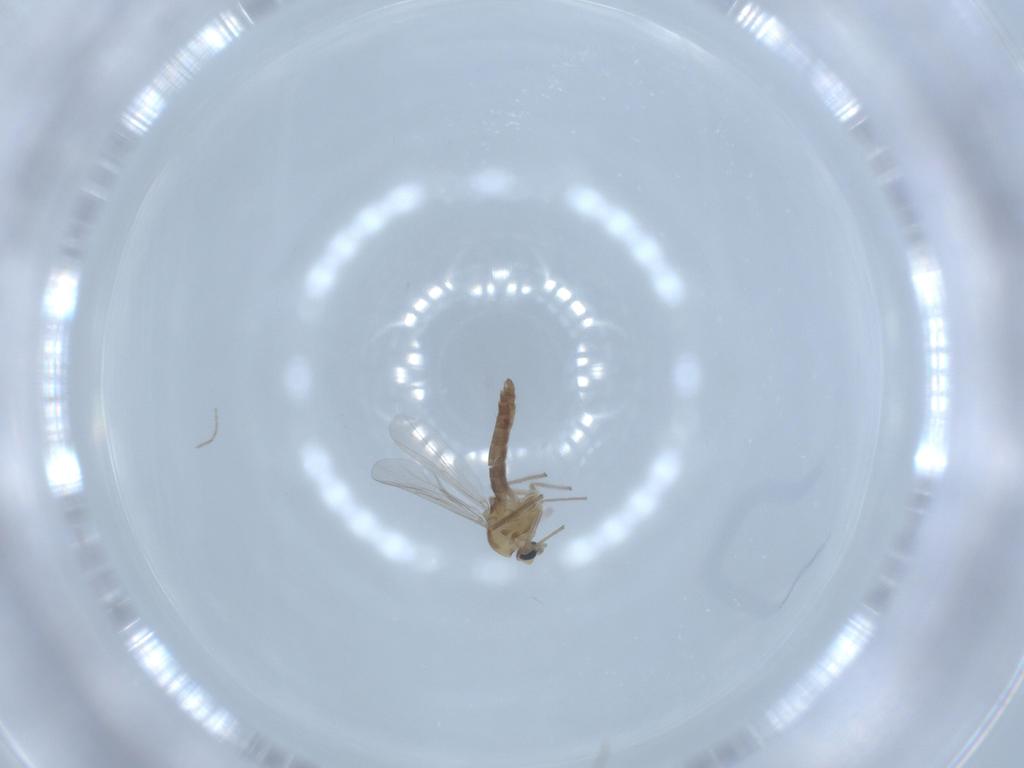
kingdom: Animalia
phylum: Arthropoda
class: Insecta
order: Diptera
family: Chironomidae
